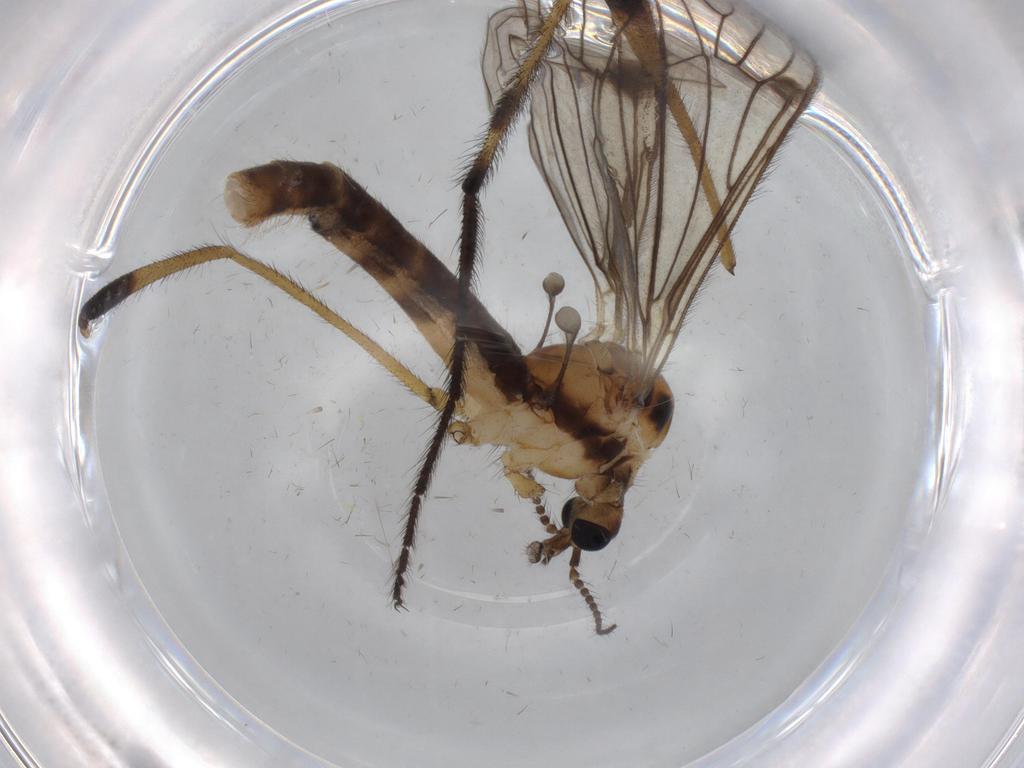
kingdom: Animalia
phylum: Arthropoda
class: Insecta
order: Diptera
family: Limoniidae
